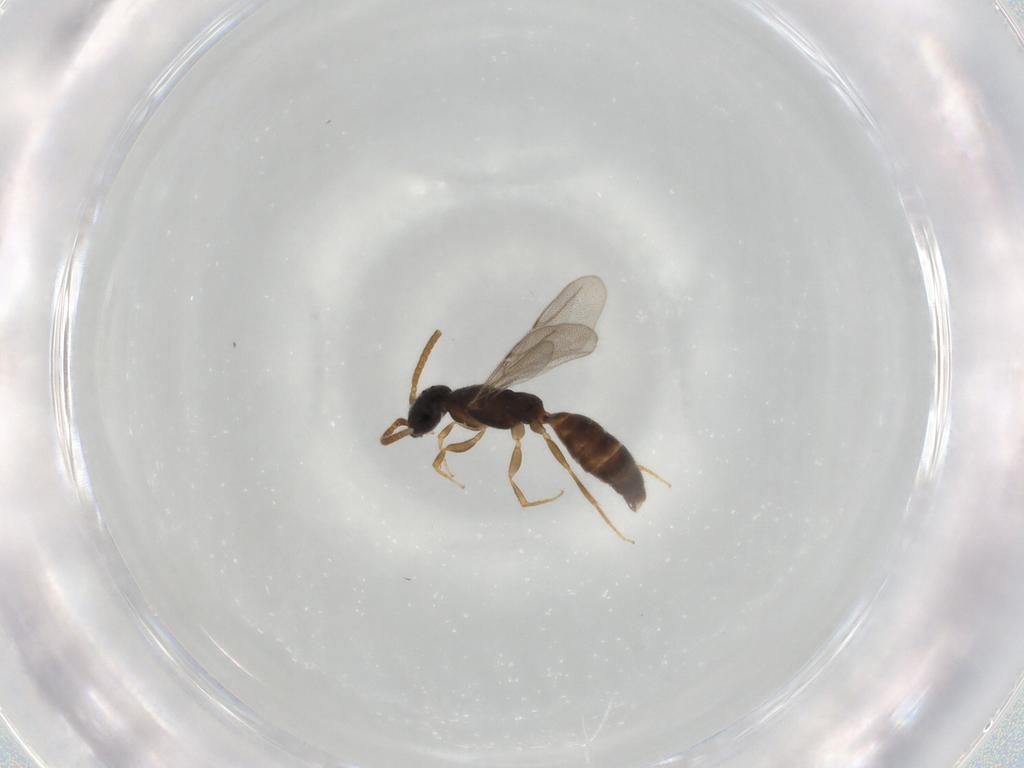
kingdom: Animalia
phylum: Arthropoda
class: Insecta
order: Hymenoptera
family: Bethylidae
